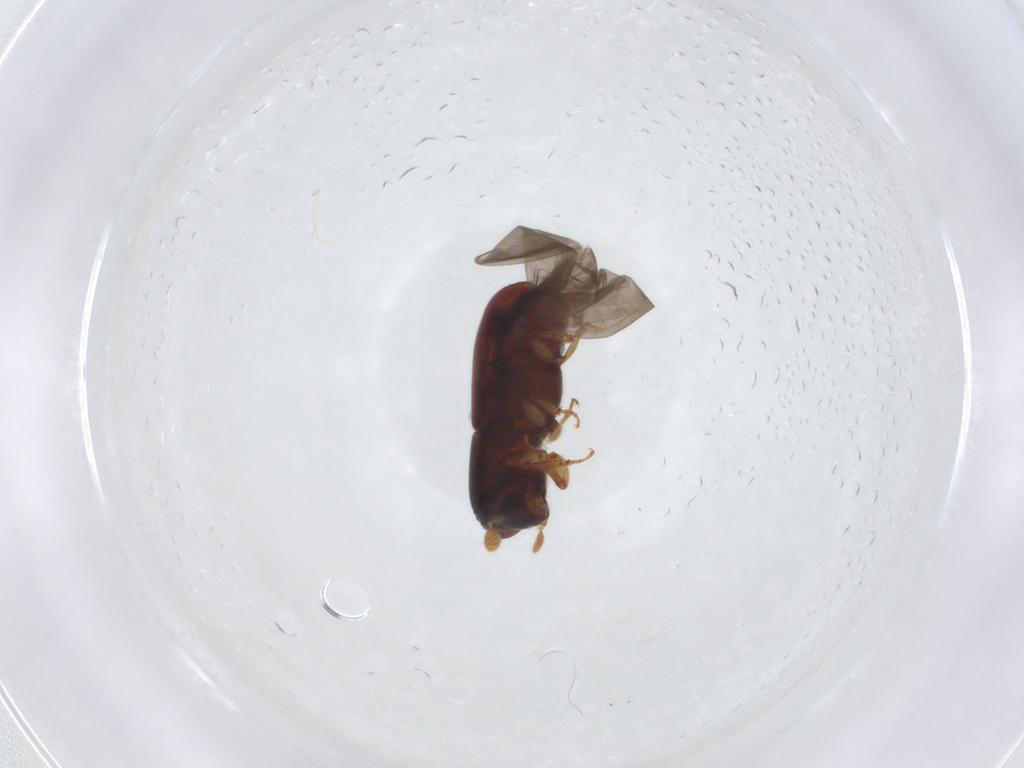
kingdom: Animalia
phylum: Arthropoda
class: Insecta
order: Coleoptera
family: Curculionidae
